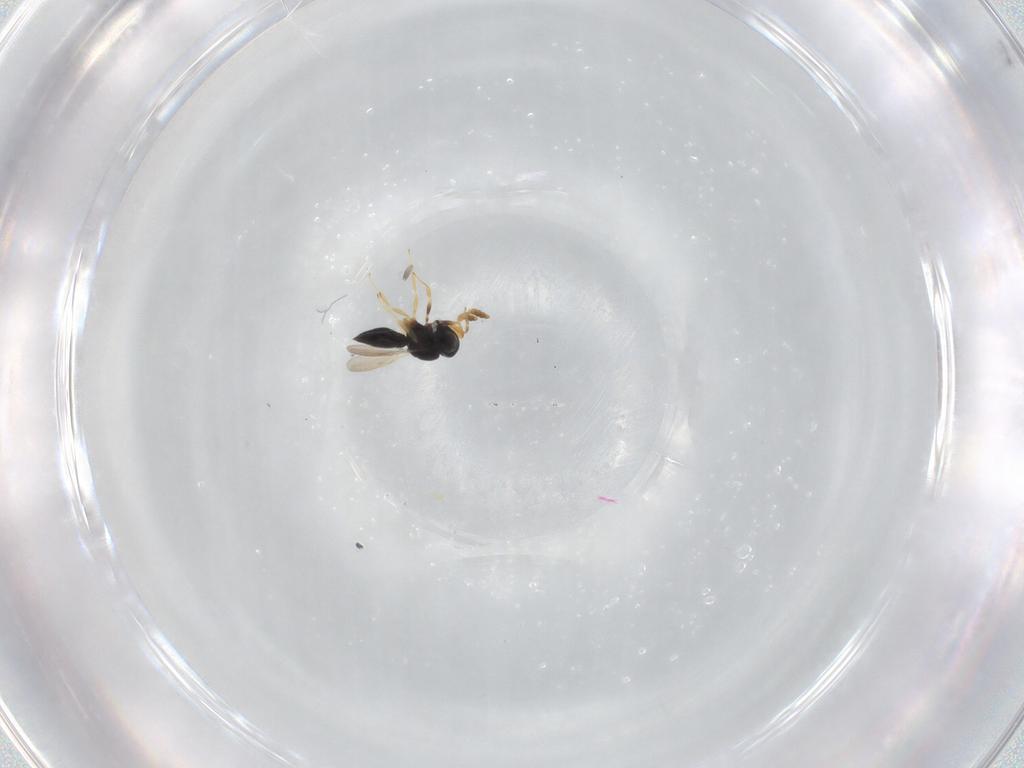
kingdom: Animalia
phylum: Arthropoda
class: Insecta
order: Hymenoptera
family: Scelionidae
